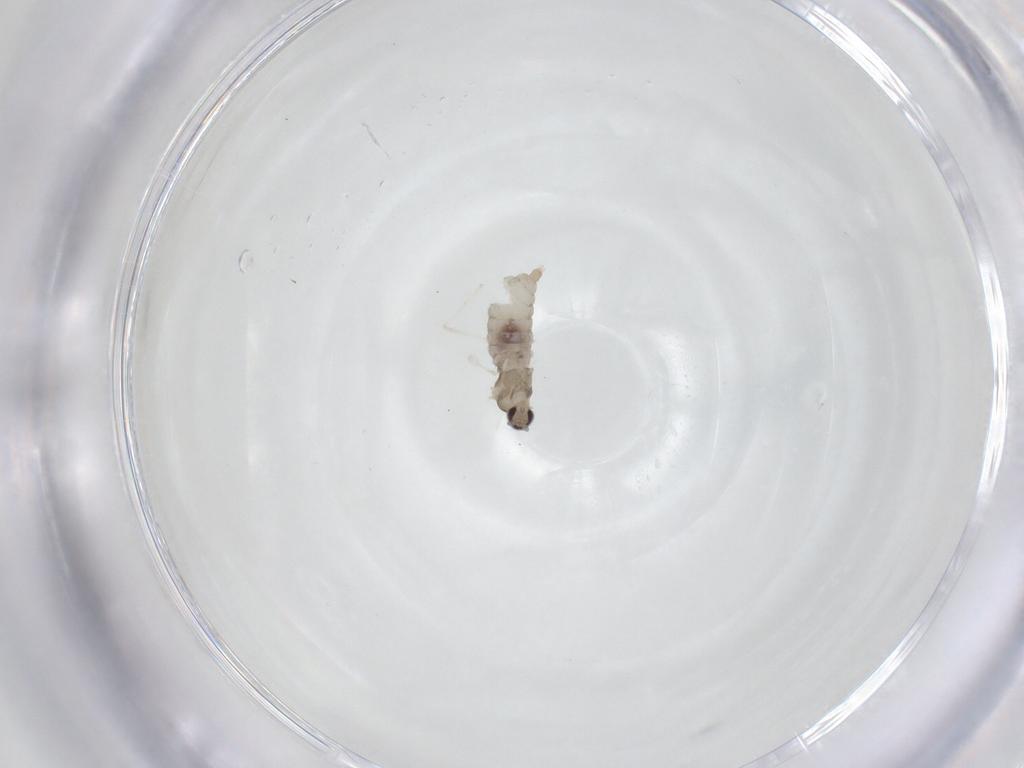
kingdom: Animalia
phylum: Arthropoda
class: Insecta
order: Diptera
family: Cecidomyiidae
